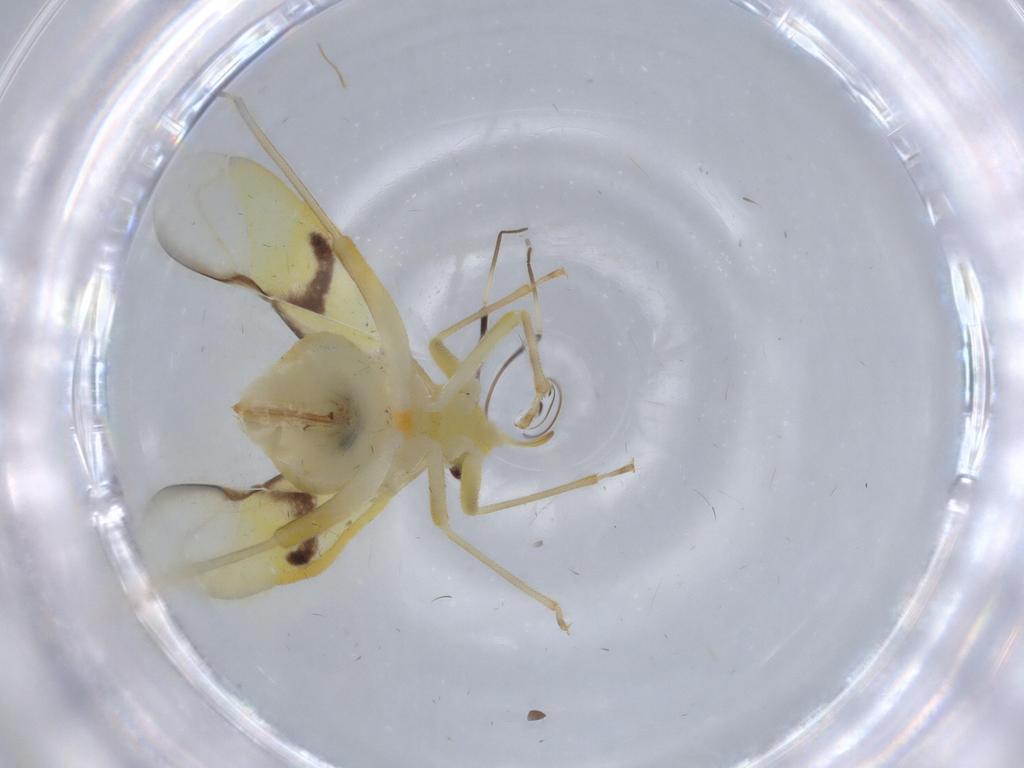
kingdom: Animalia
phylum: Arthropoda
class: Insecta
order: Hemiptera
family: Miridae
